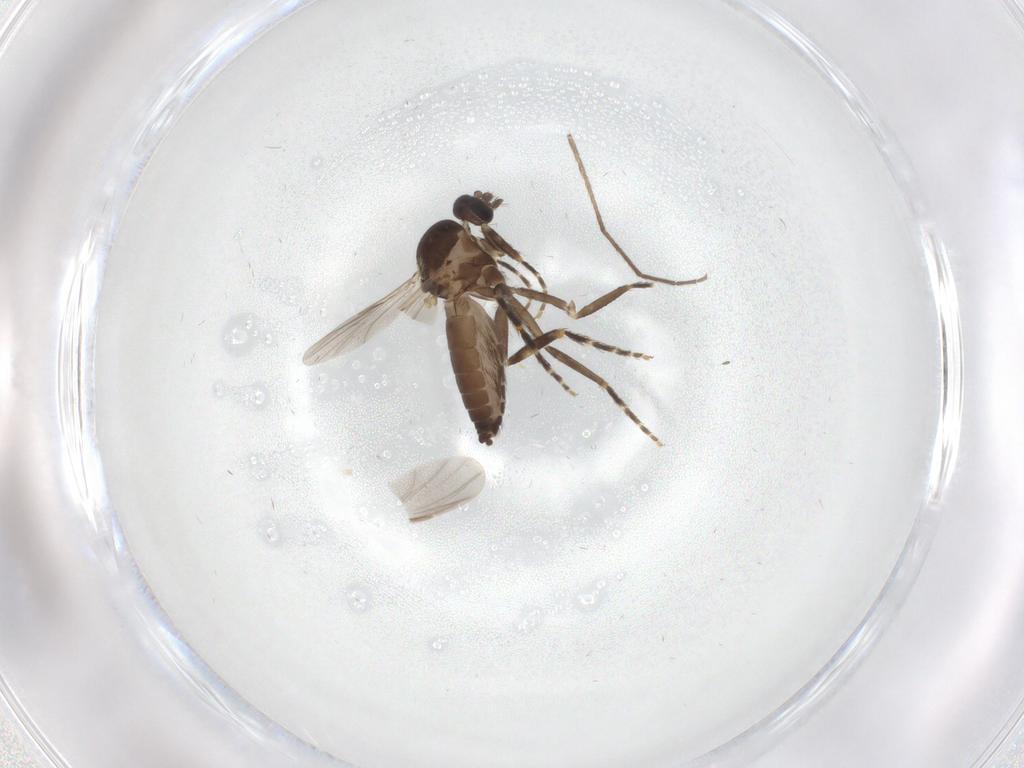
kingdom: Animalia
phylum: Arthropoda
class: Insecta
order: Diptera
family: Ceratopogonidae
